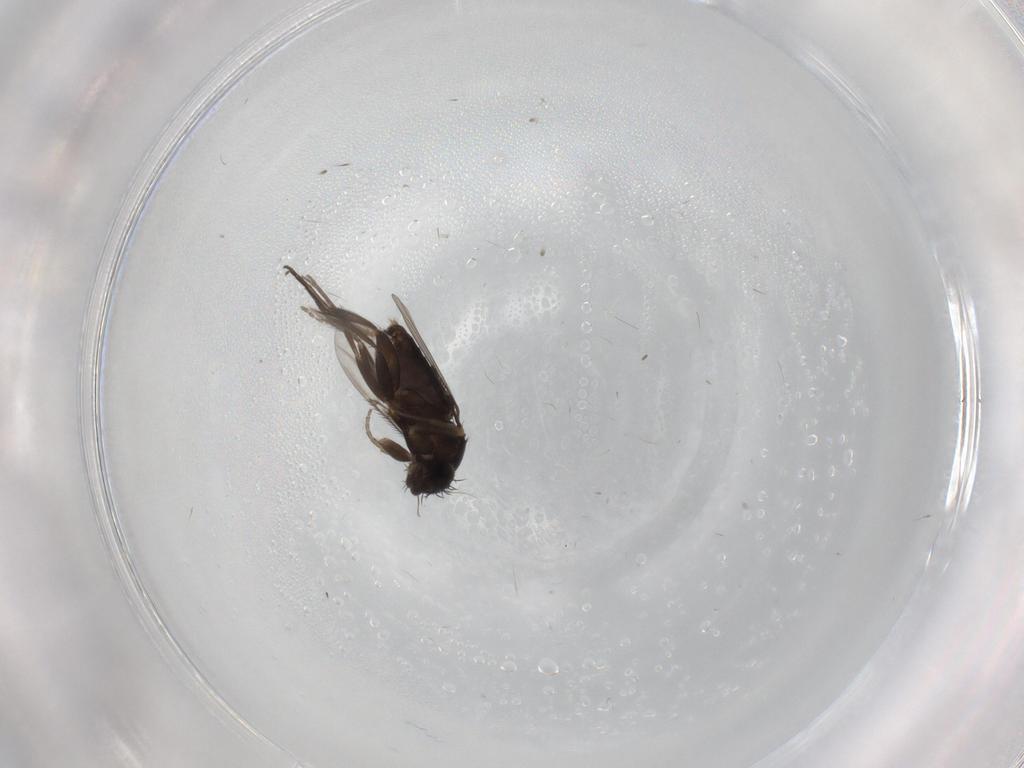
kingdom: Animalia
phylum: Arthropoda
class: Insecta
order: Diptera
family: Phoridae
